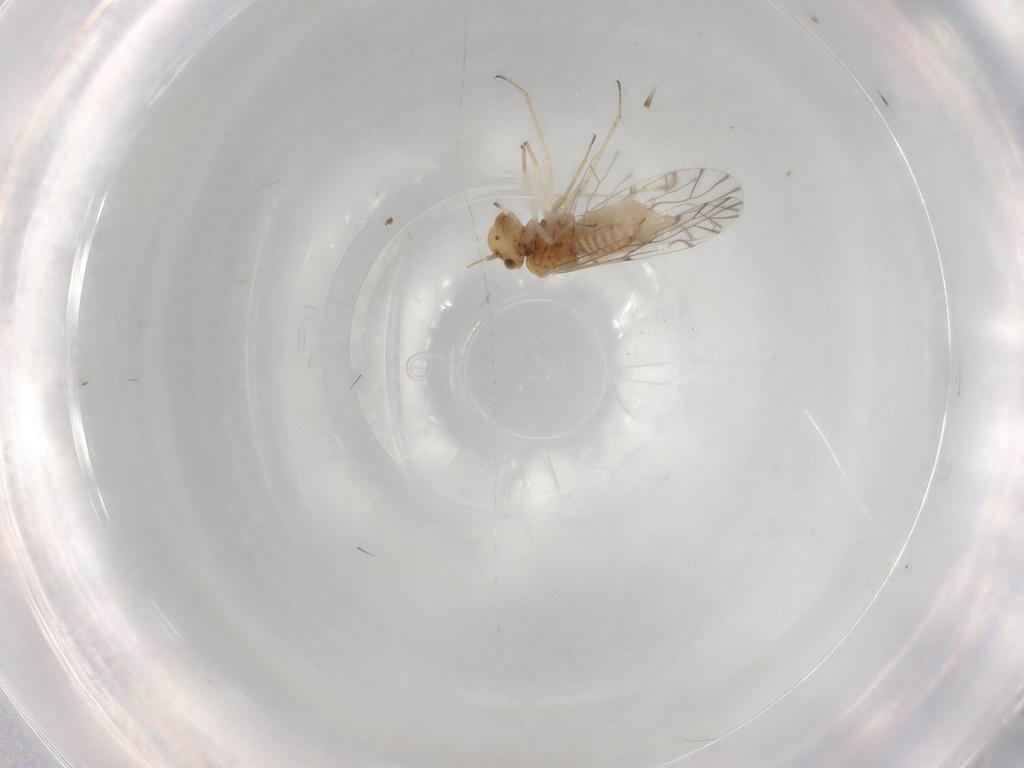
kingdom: Animalia
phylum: Arthropoda
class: Insecta
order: Psocodea
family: Lachesillidae
